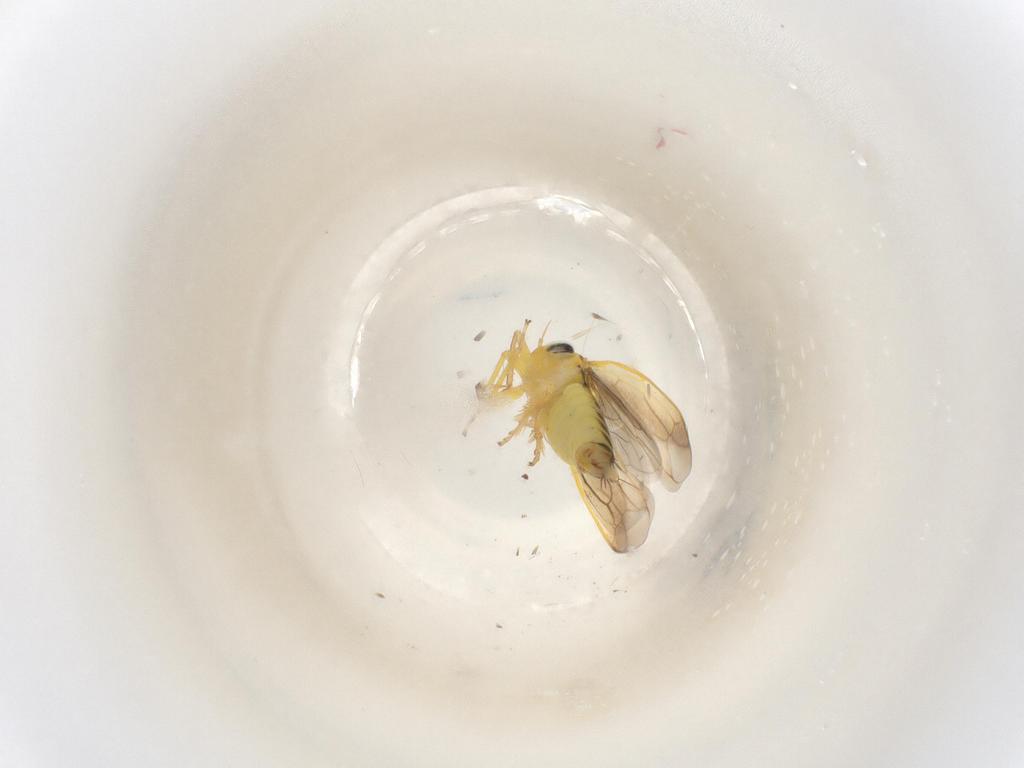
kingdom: Animalia
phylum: Arthropoda
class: Insecta
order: Hemiptera
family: Cicadellidae
